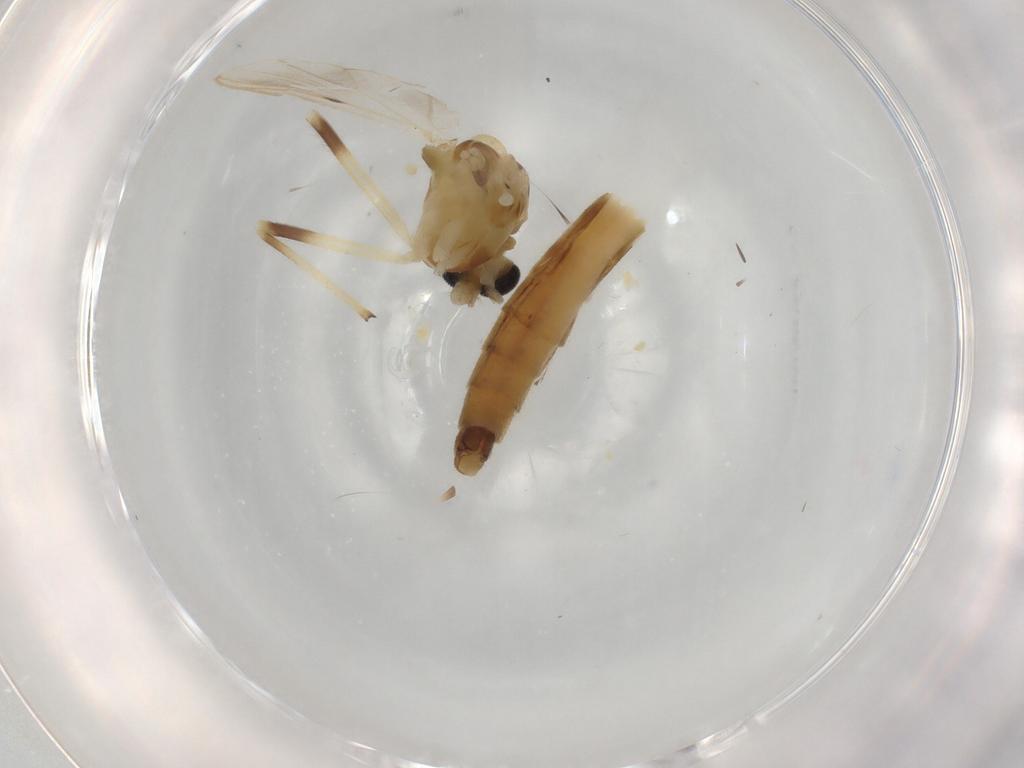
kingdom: Animalia
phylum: Arthropoda
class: Insecta
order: Diptera
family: Chironomidae
